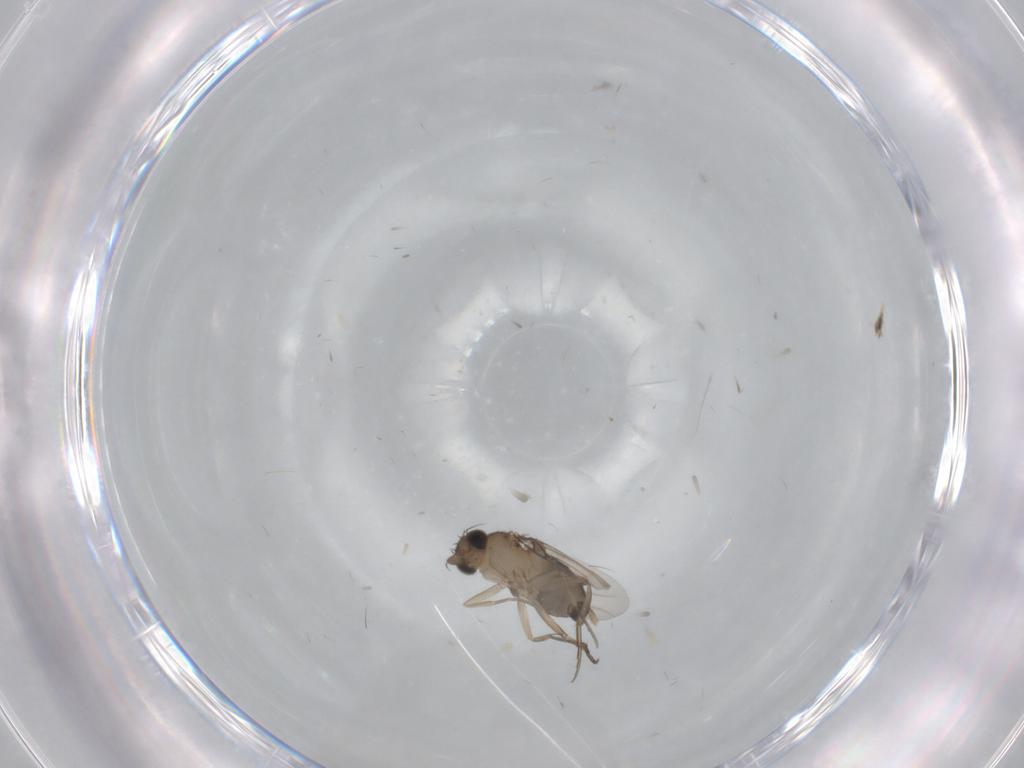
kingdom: Animalia
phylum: Arthropoda
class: Insecta
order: Diptera
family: Phoridae
